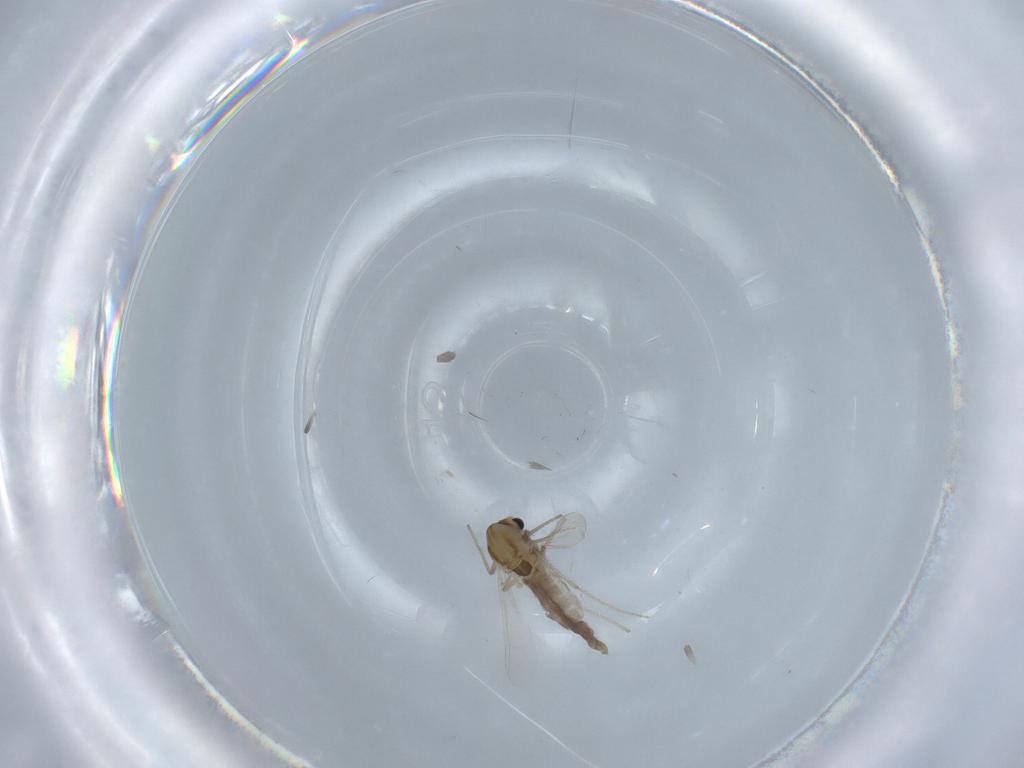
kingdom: Animalia
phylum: Arthropoda
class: Insecta
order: Diptera
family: Chironomidae
